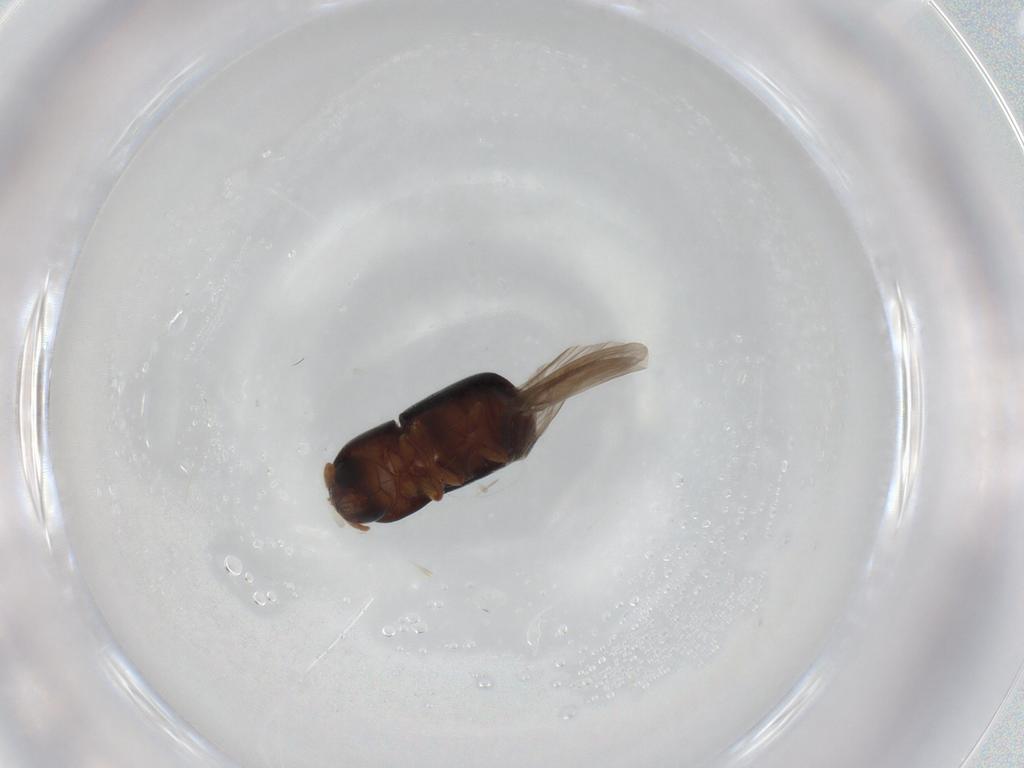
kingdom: Animalia
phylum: Arthropoda
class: Insecta
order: Coleoptera
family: Curculionidae
